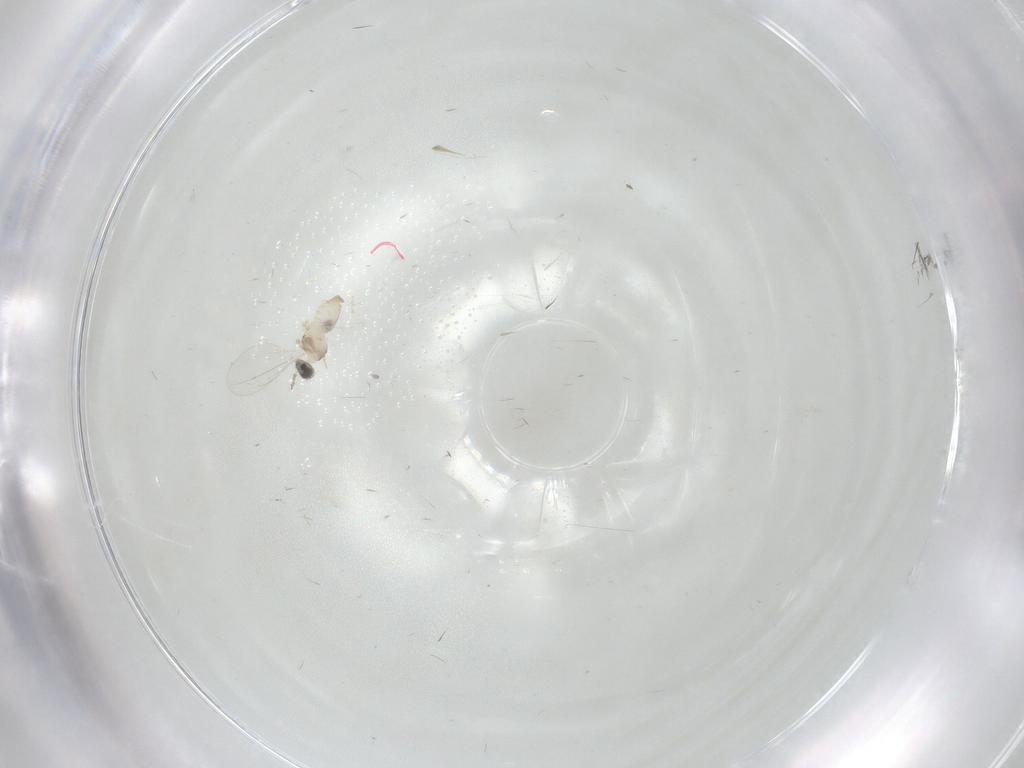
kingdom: Animalia
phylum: Arthropoda
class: Insecta
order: Diptera
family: Cecidomyiidae
